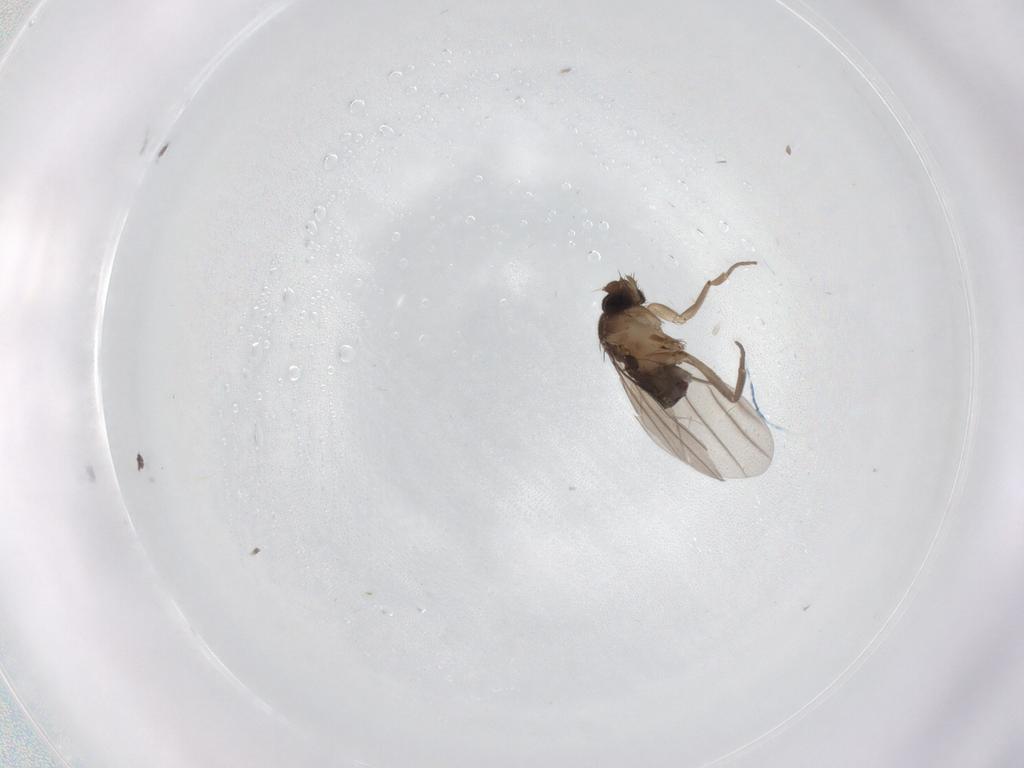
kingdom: Animalia
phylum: Arthropoda
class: Insecta
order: Diptera
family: Phoridae
